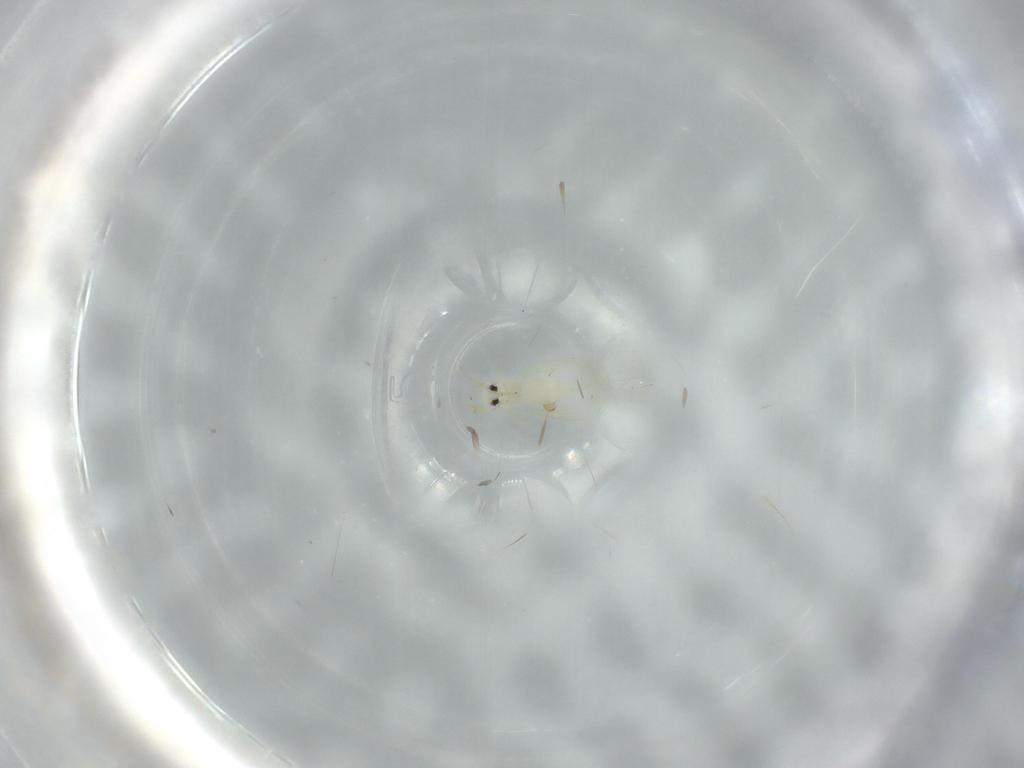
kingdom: Animalia
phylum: Arthropoda
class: Insecta
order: Hemiptera
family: Aleyrodidae
